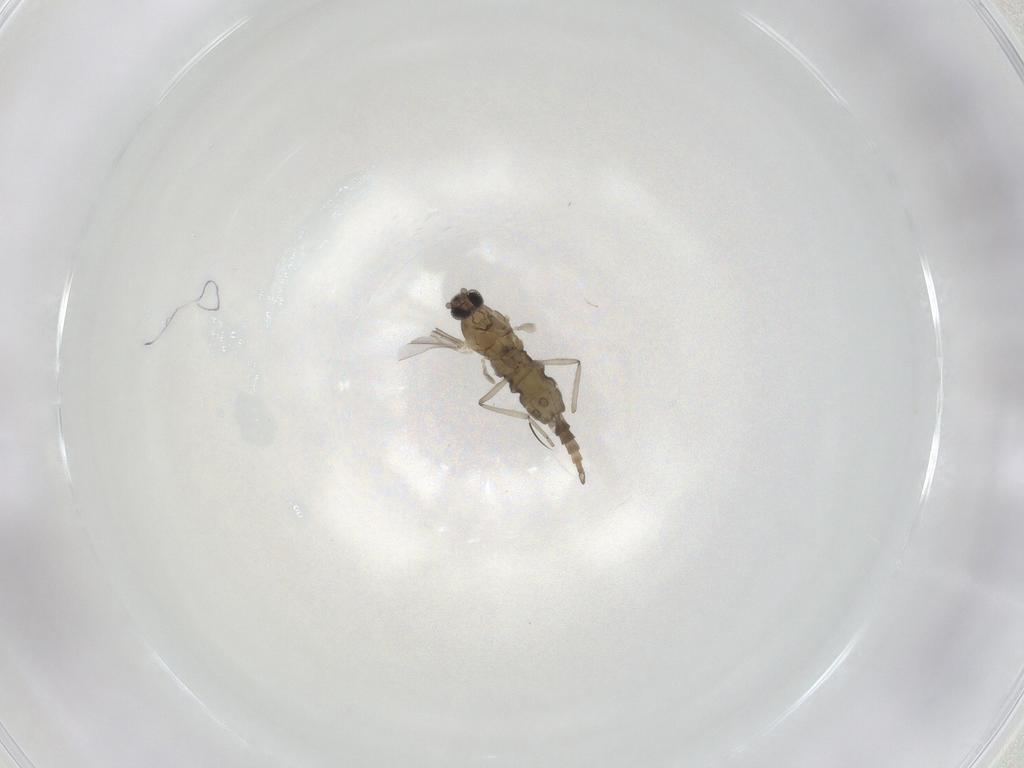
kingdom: Animalia
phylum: Arthropoda
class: Insecta
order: Diptera
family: Cecidomyiidae
